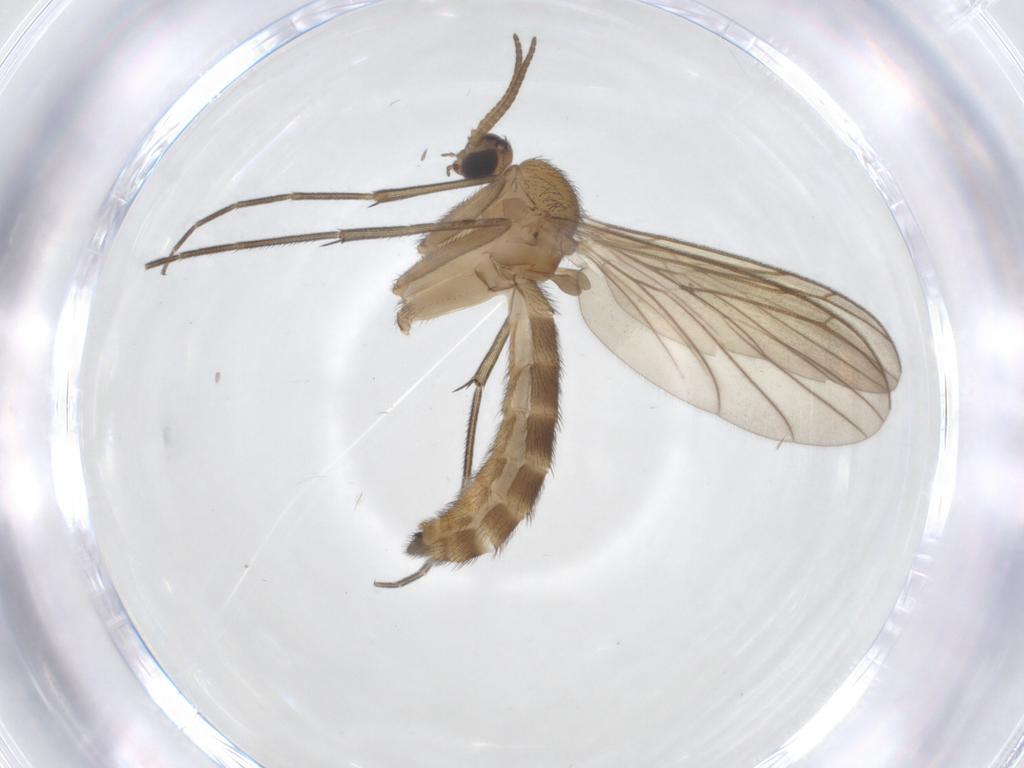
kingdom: Animalia
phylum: Arthropoda
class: Insecta
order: Diptera
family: Keroplatidae
